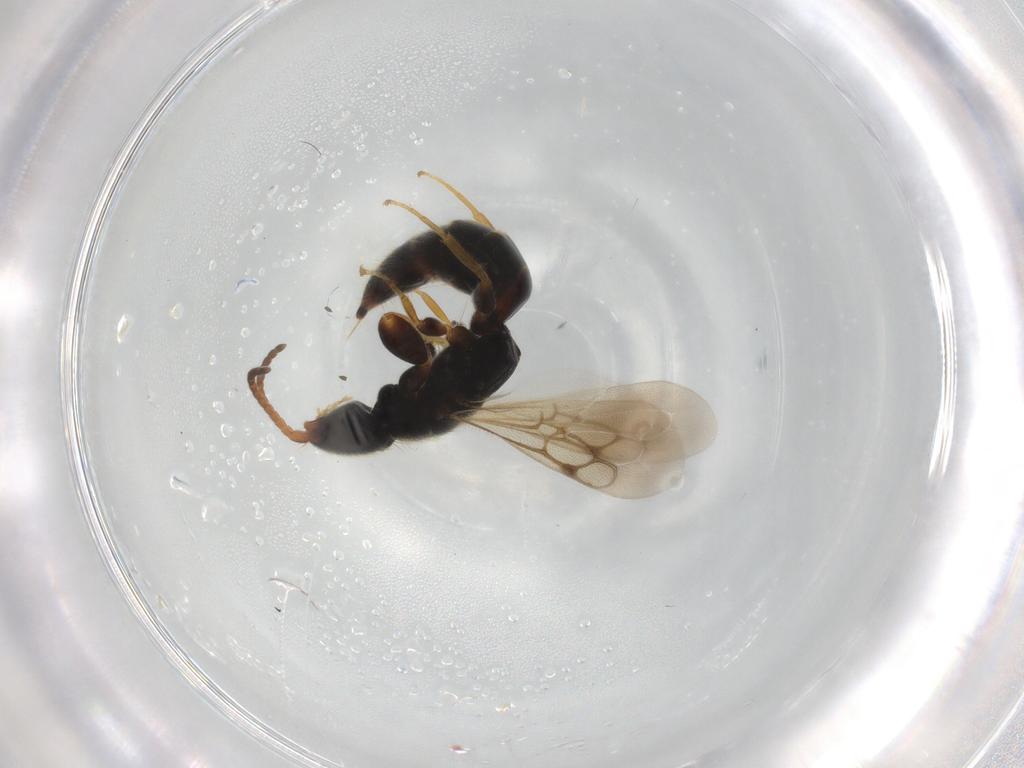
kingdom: Animalia
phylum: Arthropoda
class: Insecta
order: Hymenoptera
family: Bethylidae
